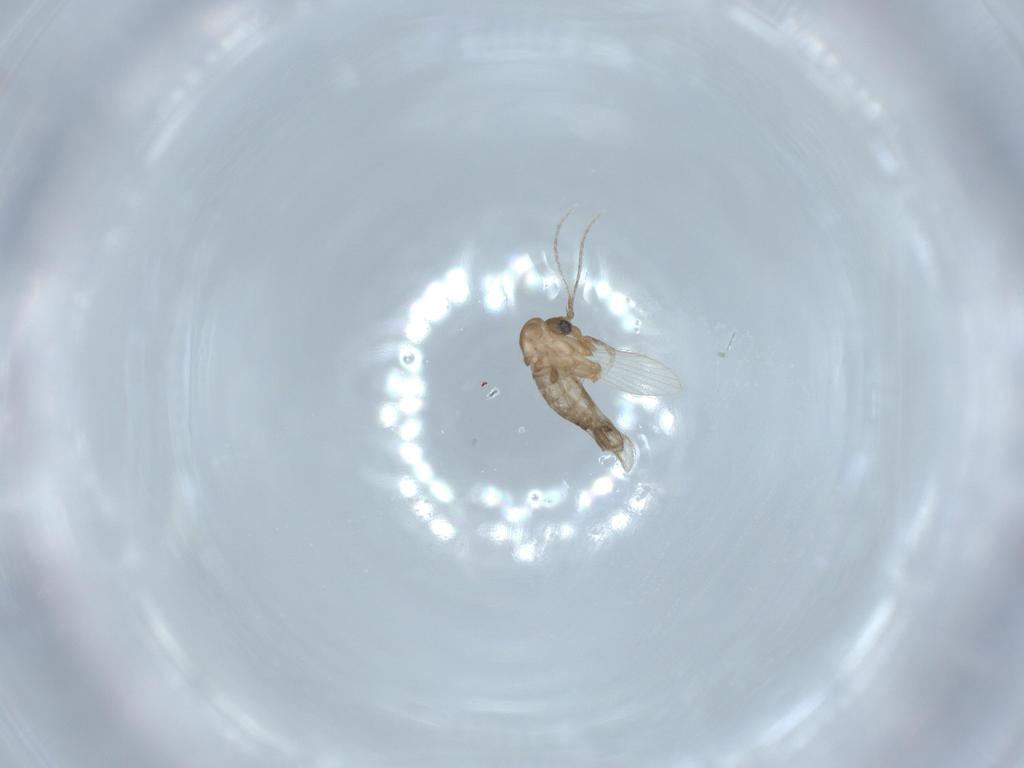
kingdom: Animalia
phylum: Arthropoda
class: Insecta
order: Diptera
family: Psychodidae
